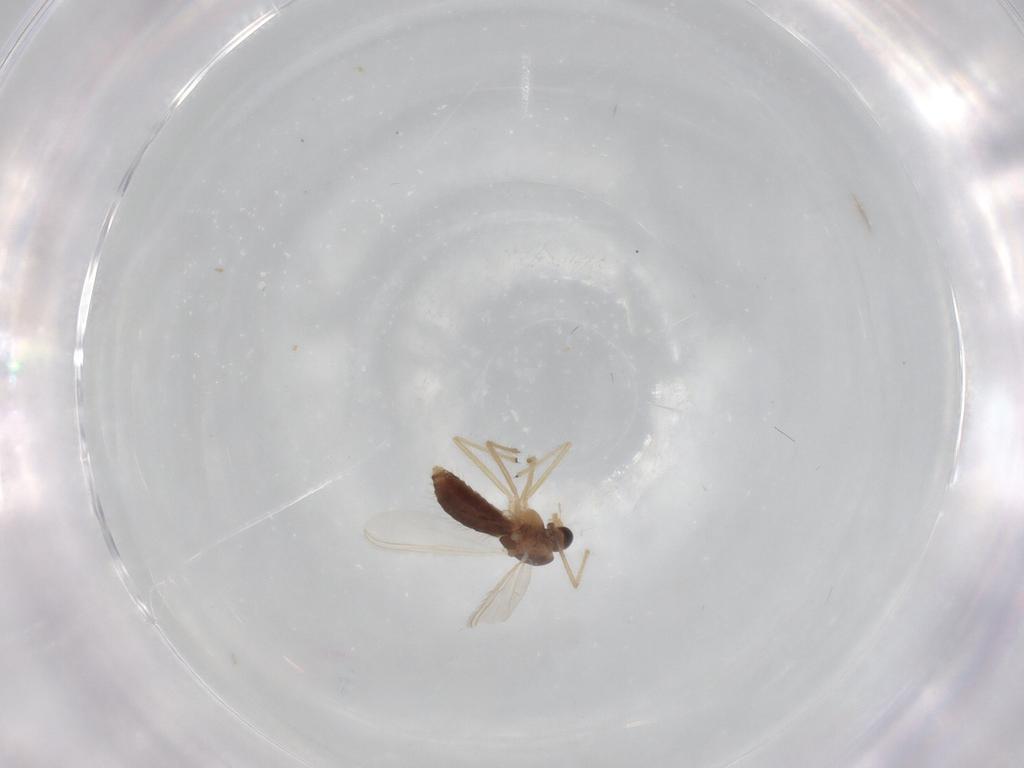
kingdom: Animalia
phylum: Arthropoda
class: Insecta
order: Diptera
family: Chironomidae
